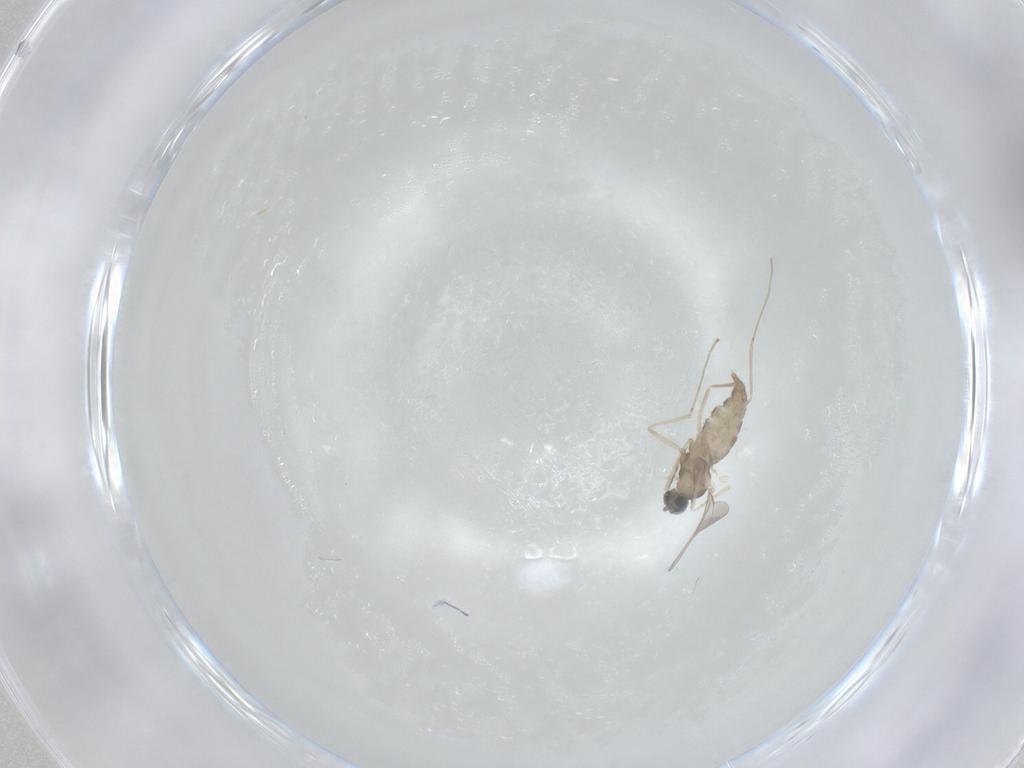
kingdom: Animalia
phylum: Arthropoda
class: Insecta
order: Diptera
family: Cecidomyiidae
